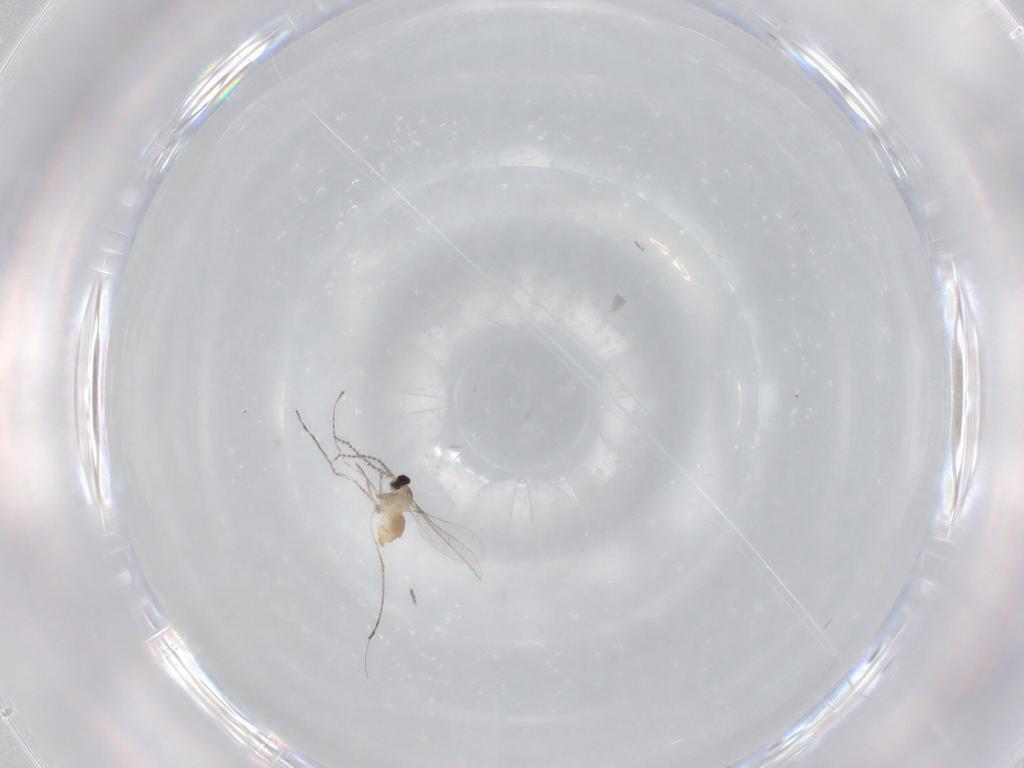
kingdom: Animalia
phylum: Arthropoda
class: Insecta
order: Diptera
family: Cecidomyiidae
